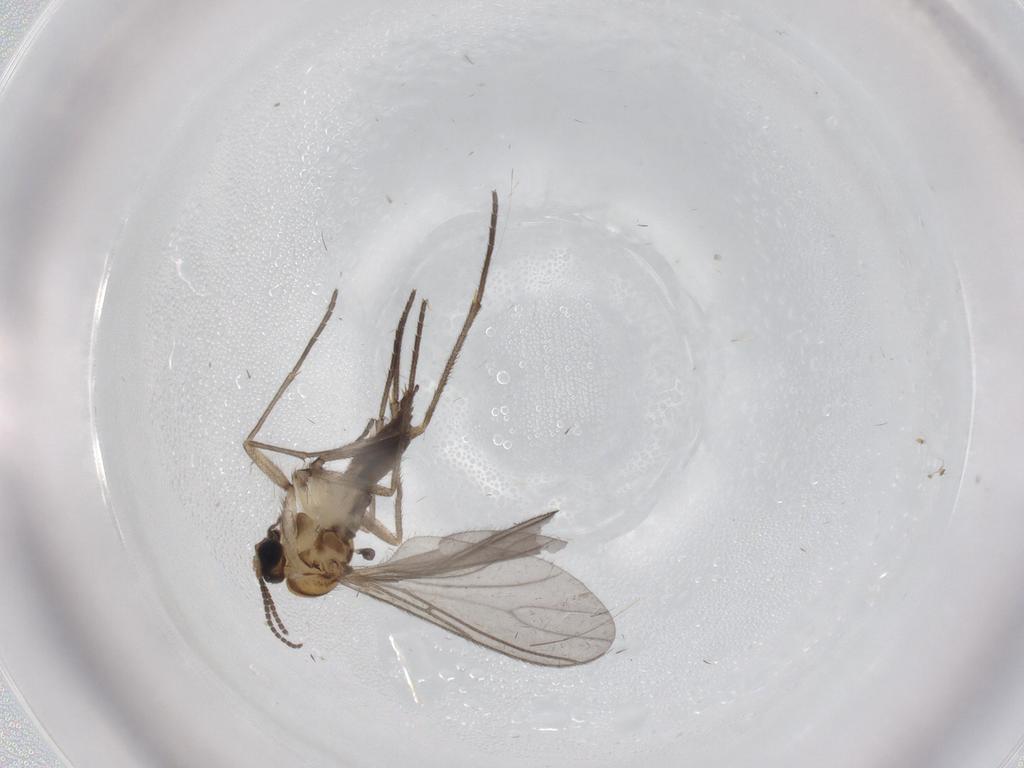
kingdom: Animalia
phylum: Arthropoda
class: Insecta
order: Diptera
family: Sciaridae
